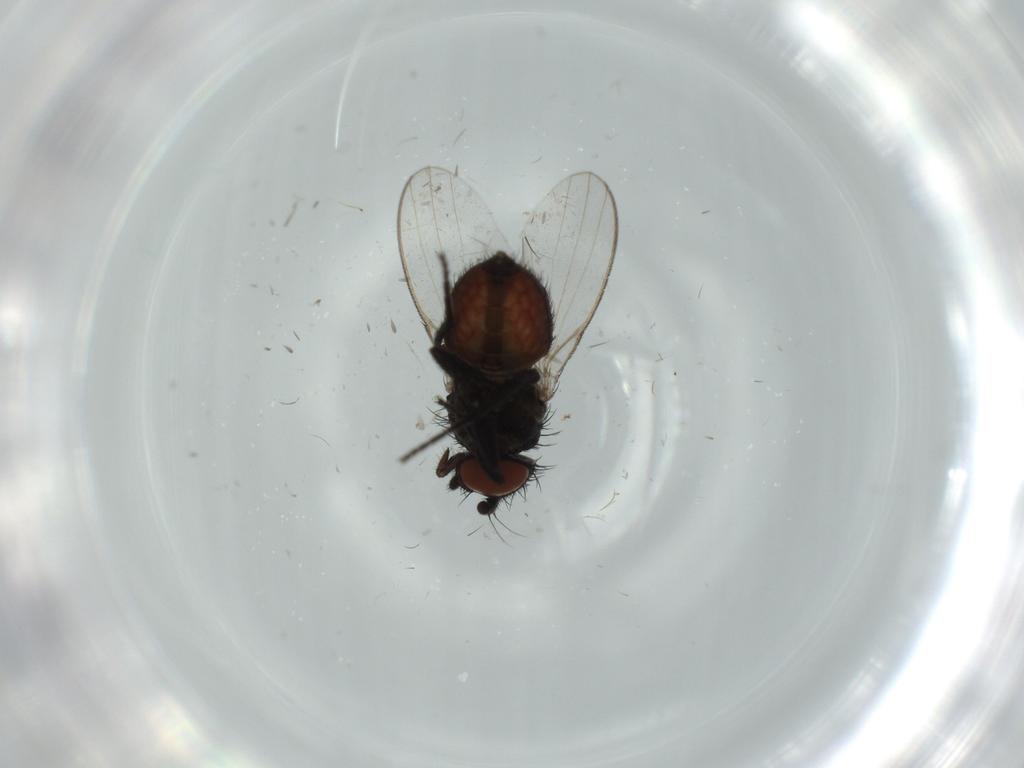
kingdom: Animalia
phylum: Arthropoda
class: Insecta
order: Diptera
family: Milichiidae
